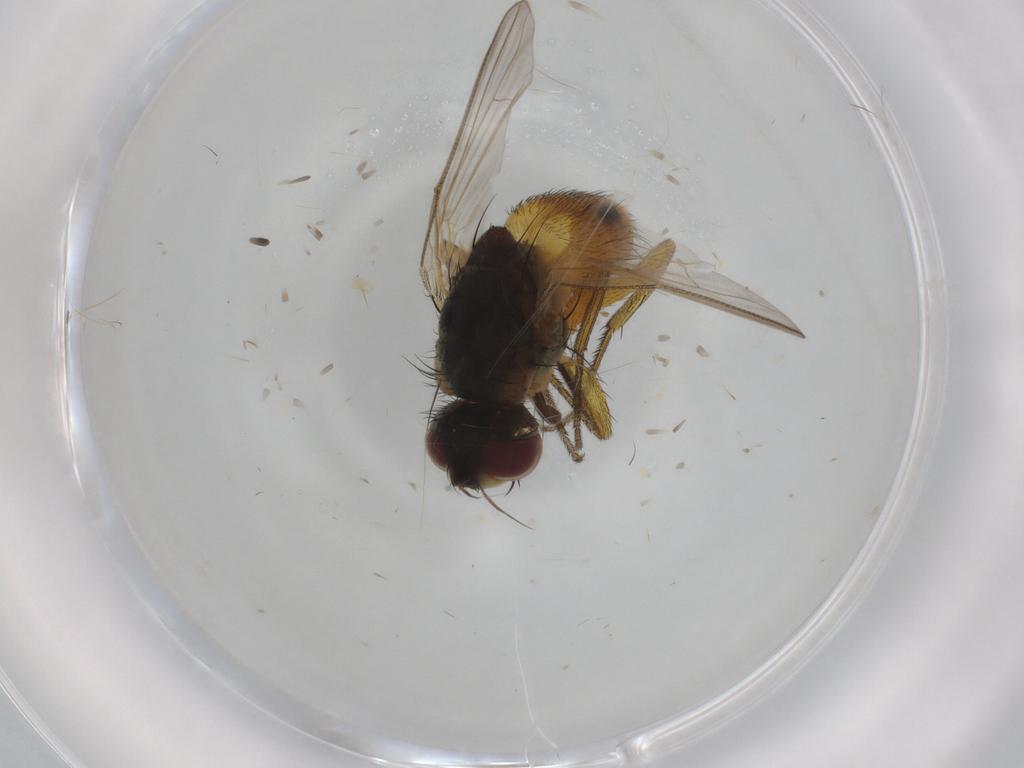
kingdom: Animalia
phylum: Arthropoda
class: Insecta
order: Diptera
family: Muscidae
